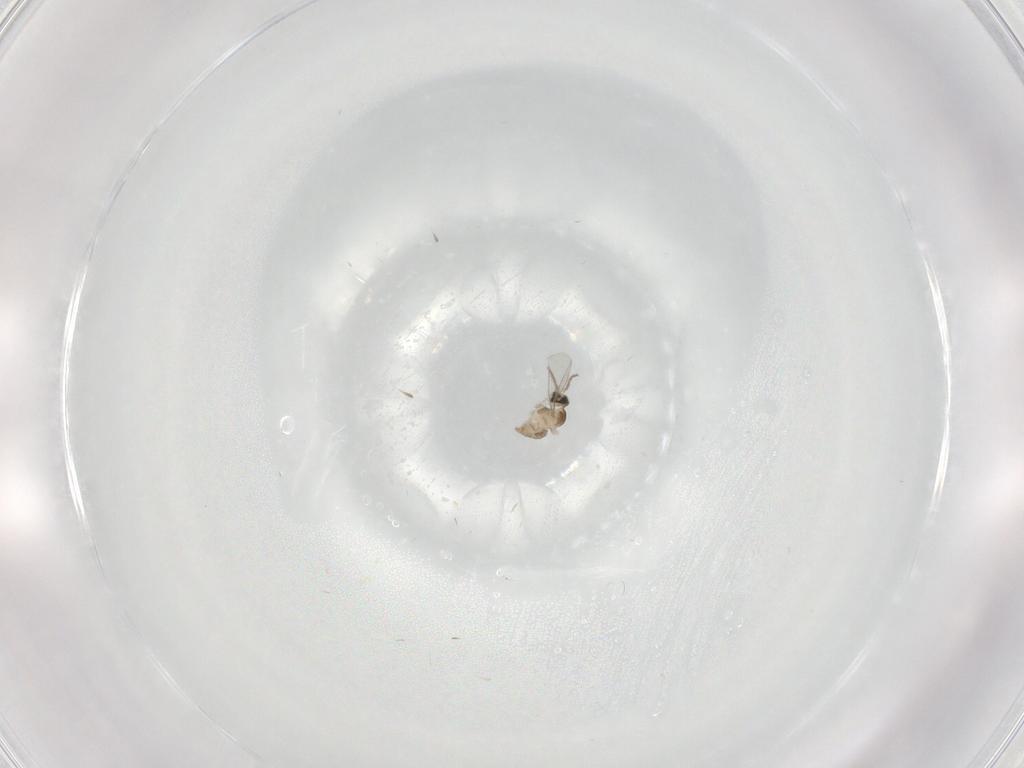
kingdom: Animalia
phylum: Arthropoda
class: Insecta
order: Diptera
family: Cecidomyiidae
